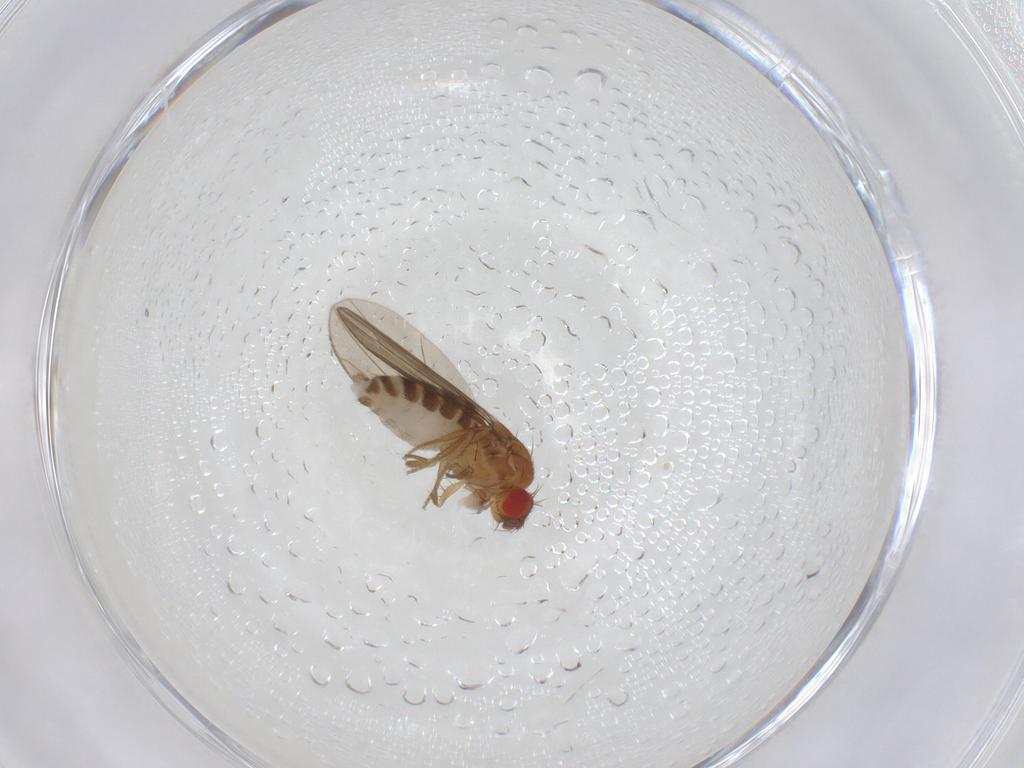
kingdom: Animalia
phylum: Arthropoda
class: Insecta
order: Diptera
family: Drosophilidae
